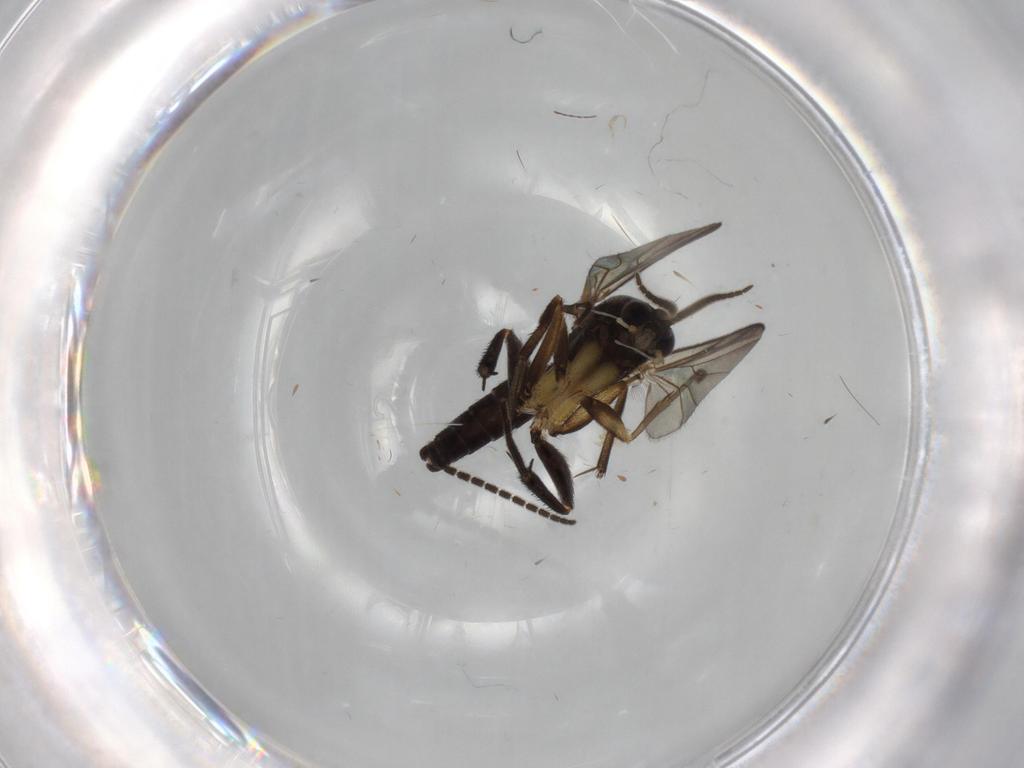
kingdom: Animalia
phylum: Arthropoda
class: Insecta
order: Diptera
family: Mycetophilidae
